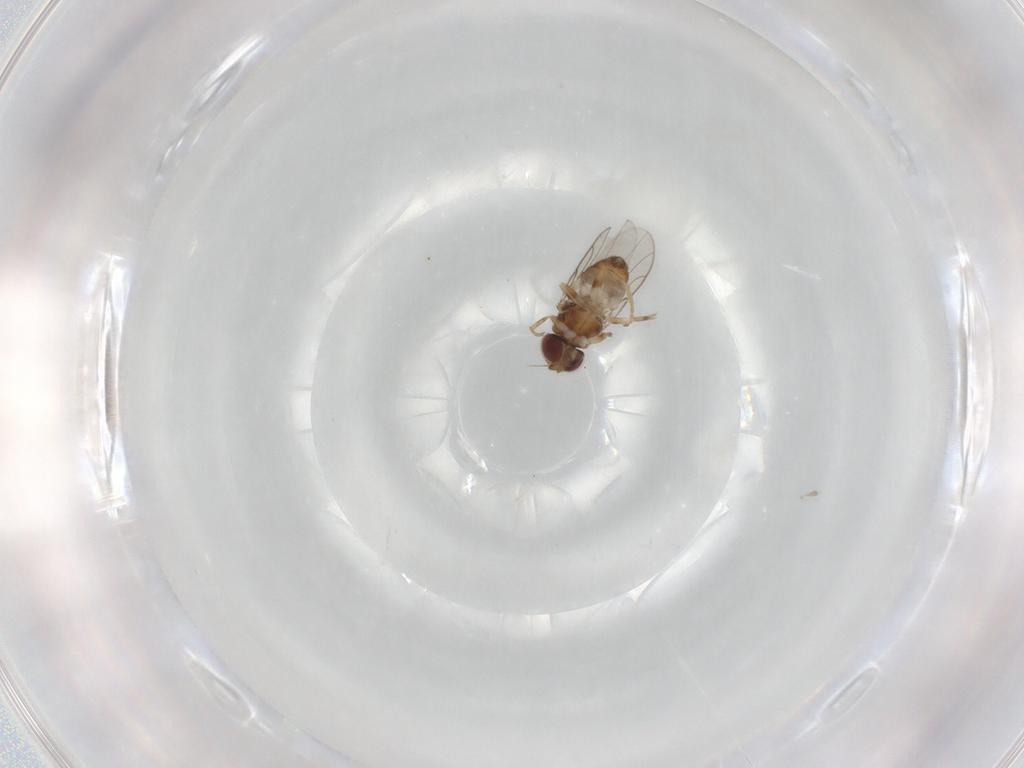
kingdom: Animalia
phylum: Arthropoda
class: Insecta
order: Diptera
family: Chloropidae
